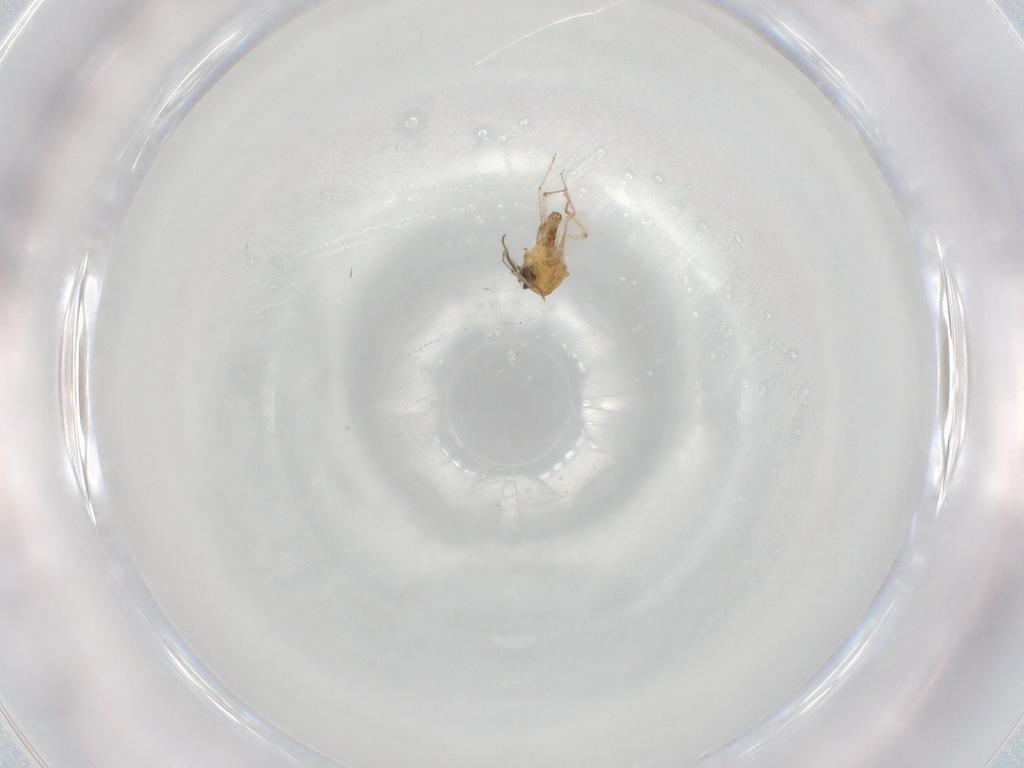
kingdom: Animalia
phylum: Arthropoda
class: Insecta
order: Diptera
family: Ceratopogonidae
